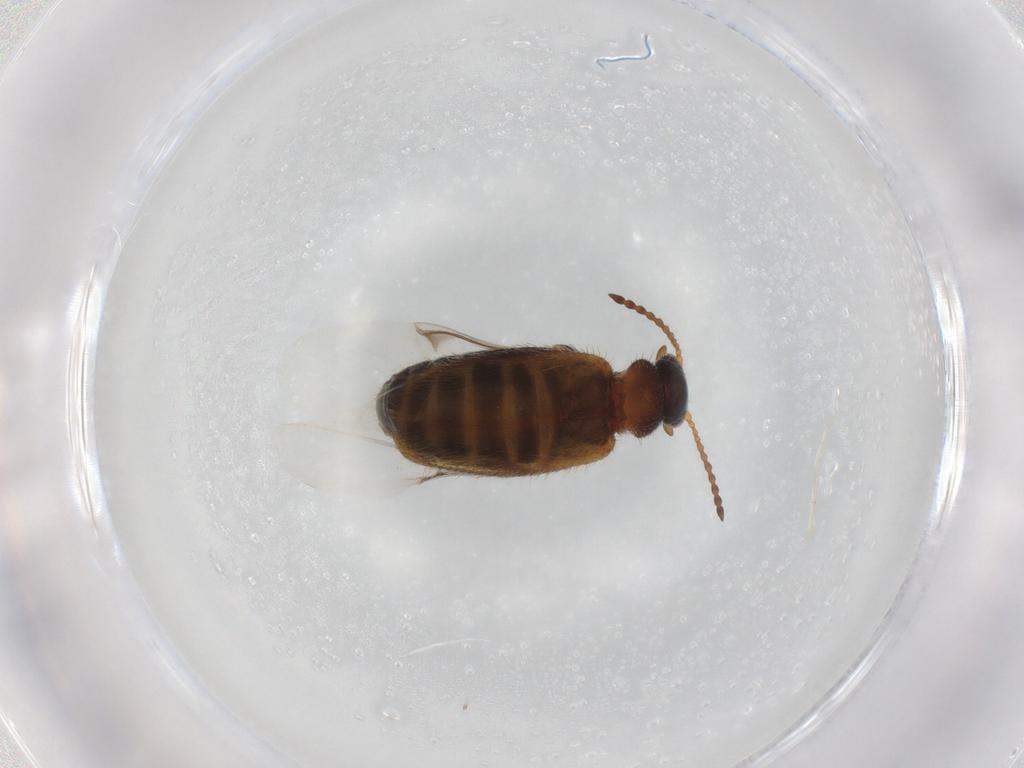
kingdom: Animalia
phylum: Arthropoda
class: Insecta
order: Coleoptera
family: Anthicidae
